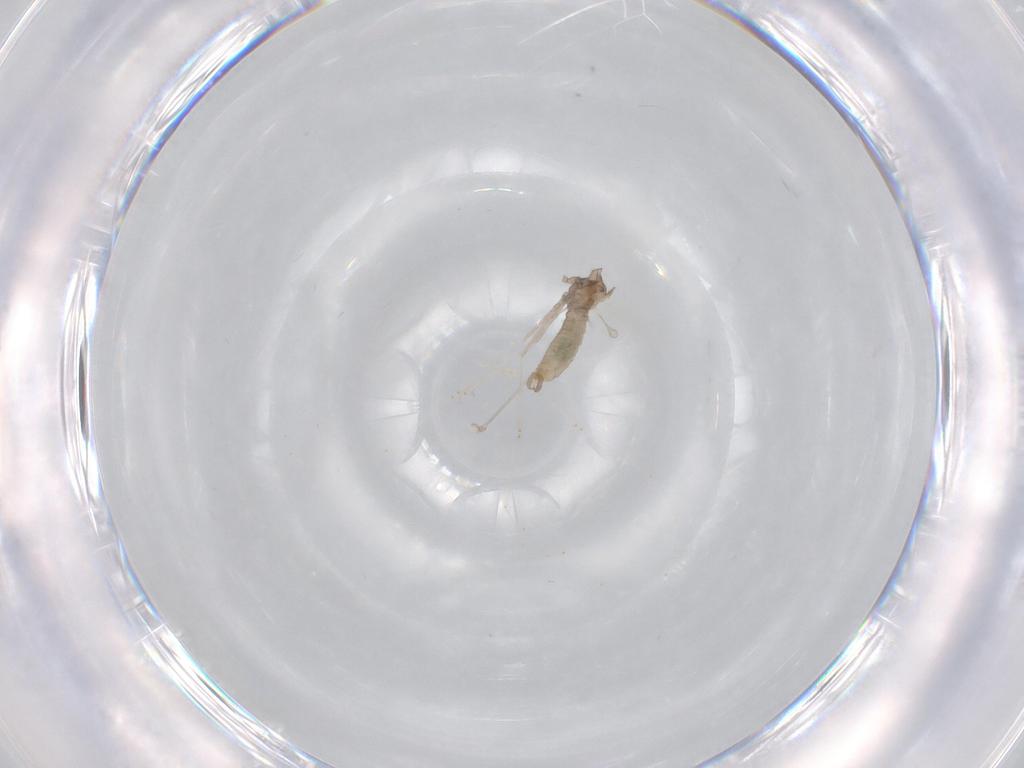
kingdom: Animalia
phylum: Arthropoda
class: Insecta
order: Diptera
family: Cecidomyiidae
